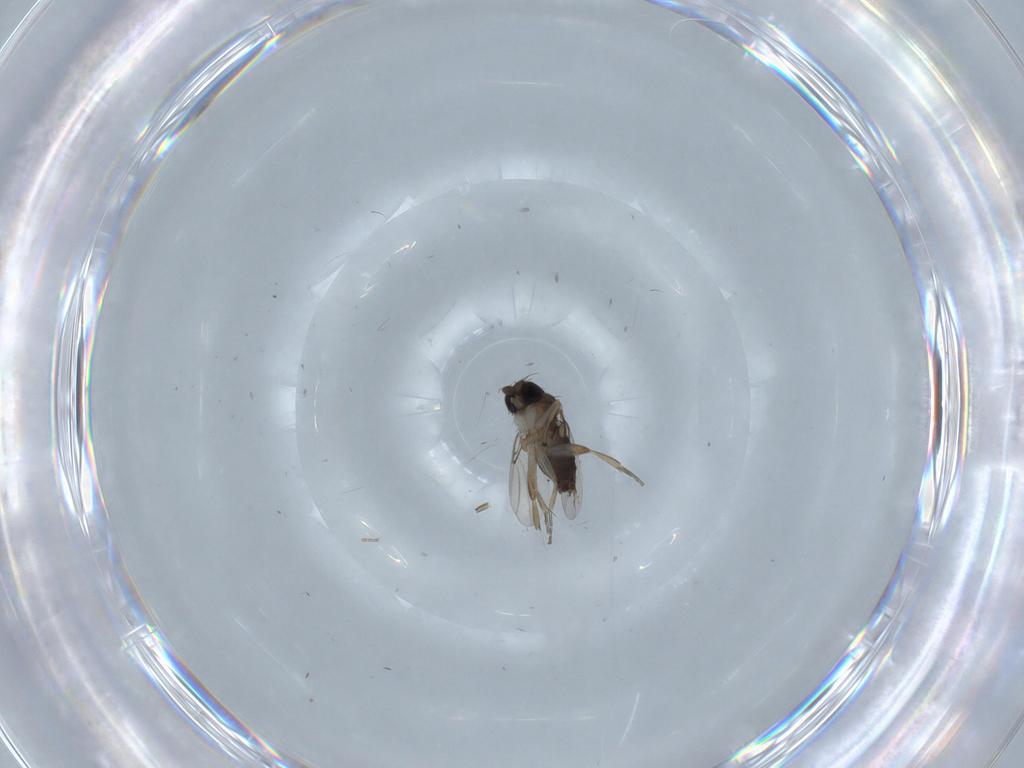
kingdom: Animalia
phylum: Arthropoda
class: Insecta
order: Diptera
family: Phoridae
